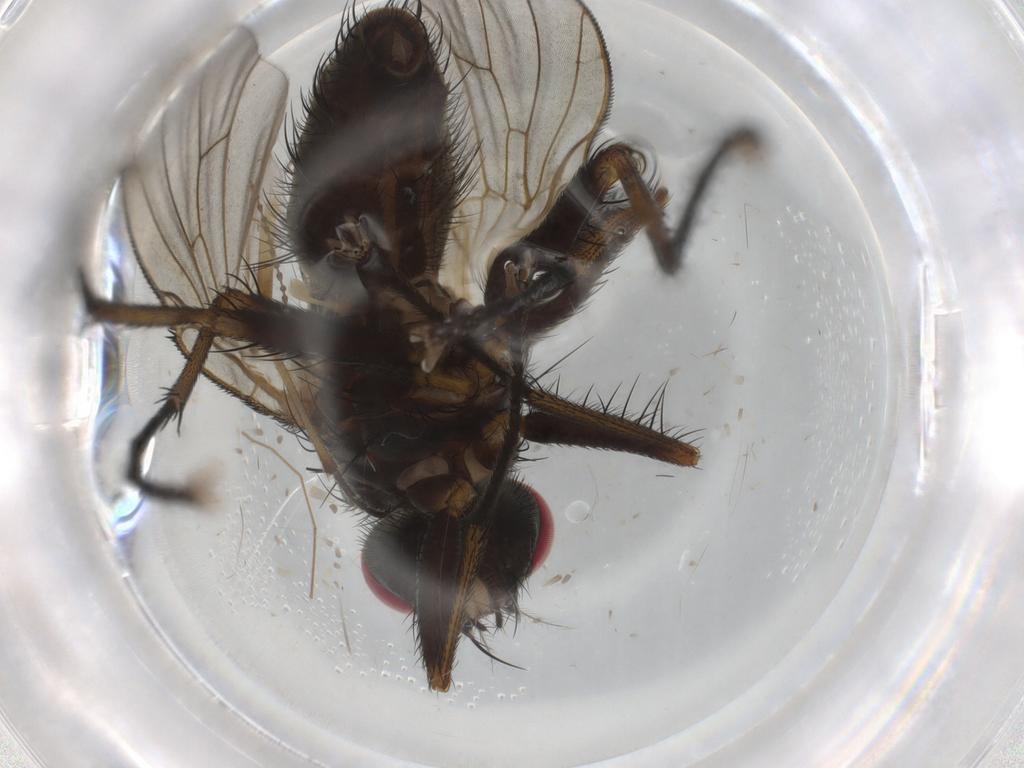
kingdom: Animalia
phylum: Arthropoda
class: Insecta
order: Diptera
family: Muscidae
